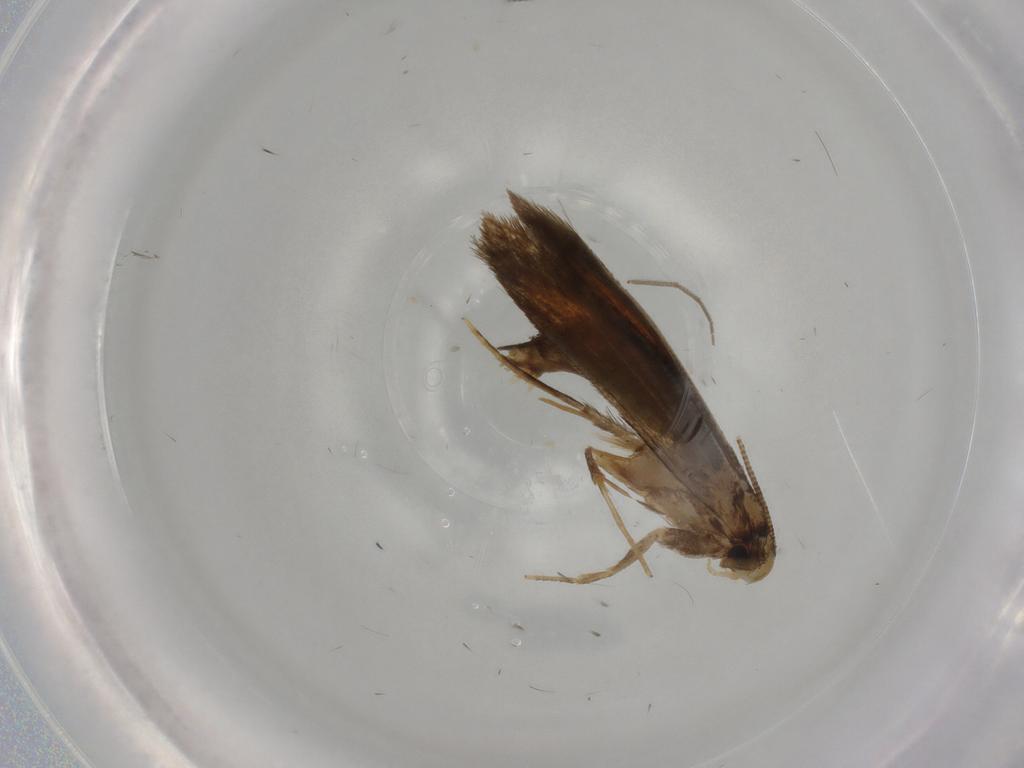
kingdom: Animalia
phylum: Arthropoda
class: Insecta
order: Lepidoptera
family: Tineidae
